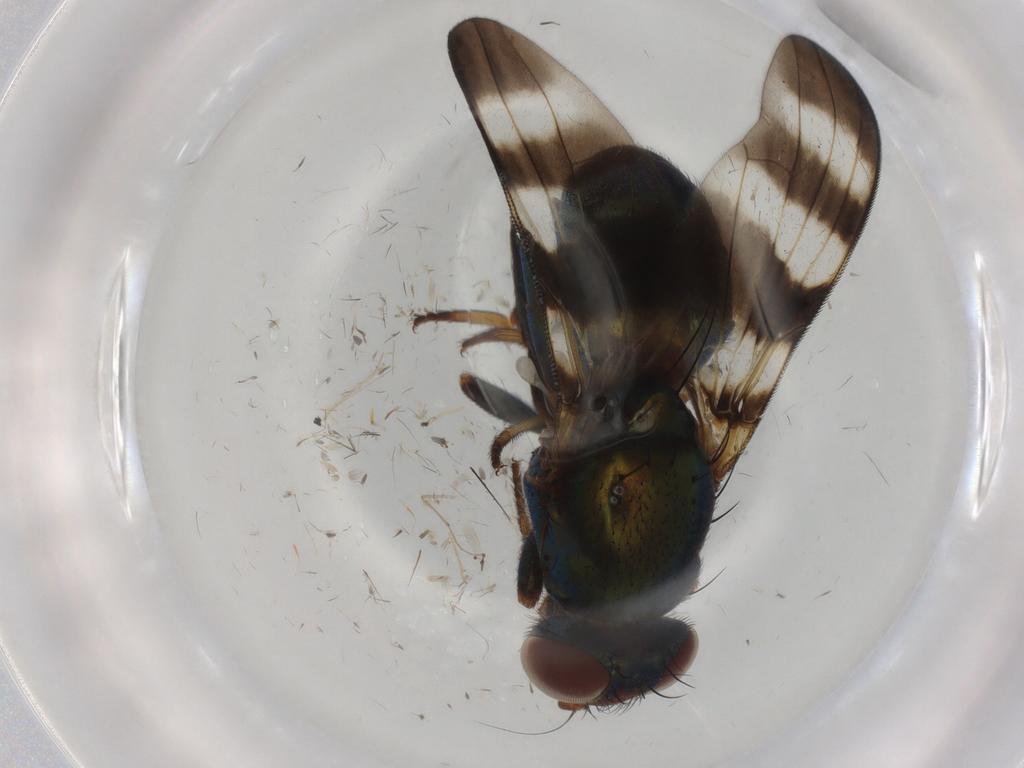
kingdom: Animalia
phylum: Arthropoda
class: Insecta
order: Diptera
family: Ulidiidae
